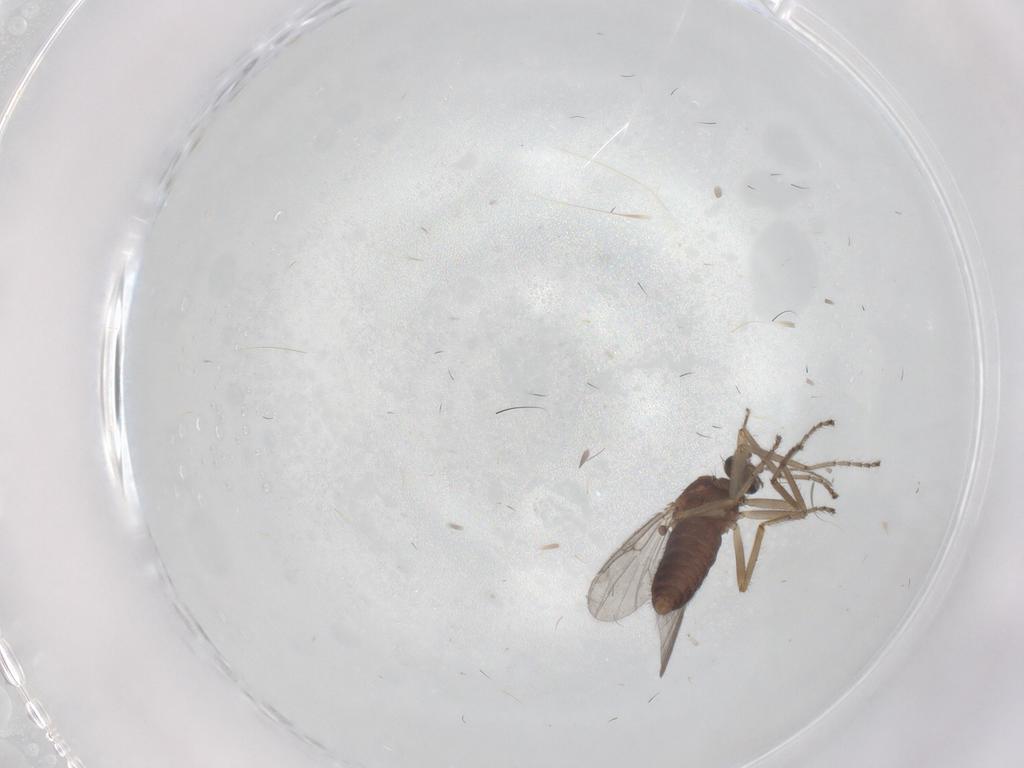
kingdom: Animalia
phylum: Arthropoda
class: Insecta
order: Diptera
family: Ceratopogonidae
